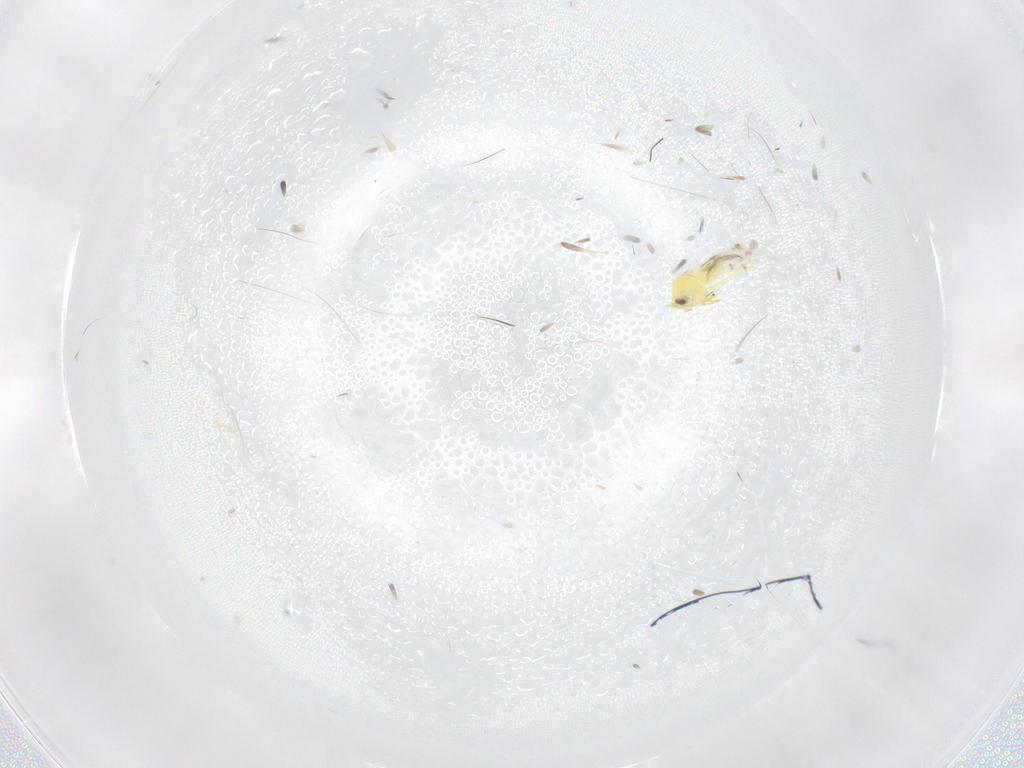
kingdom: Animalia
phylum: Arthropoda
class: Insecta
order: Hemiptera
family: Aleyrodidae
